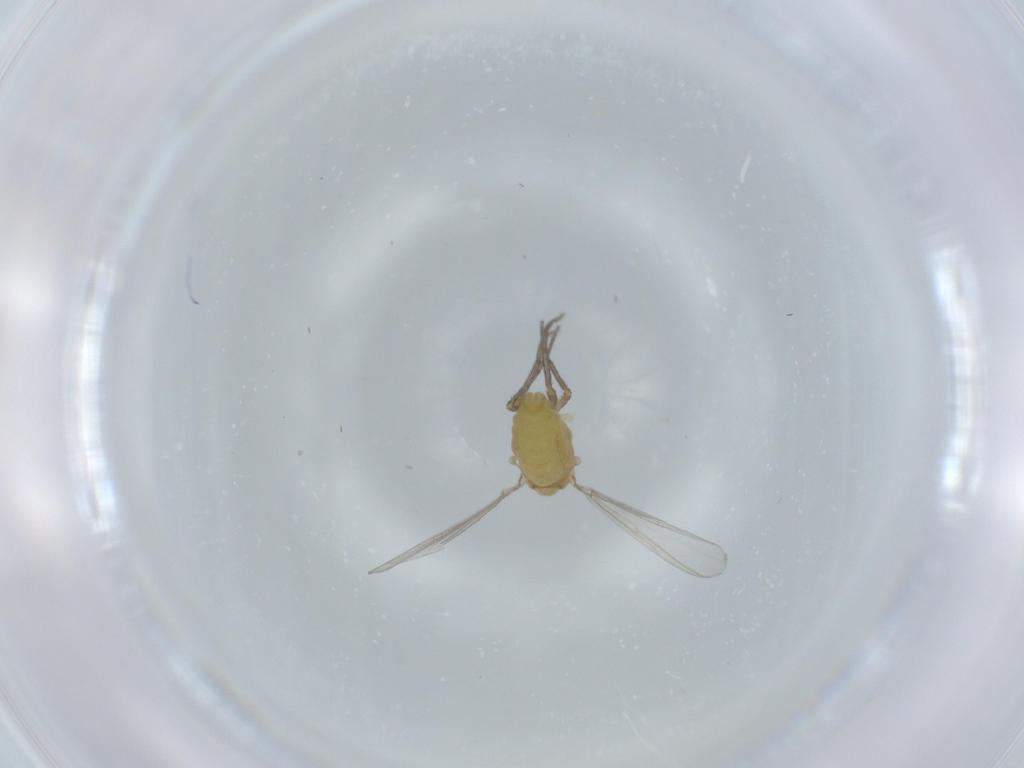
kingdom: Animalia
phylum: Arthropoda
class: Insecta
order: Diptera
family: Chironomidae
